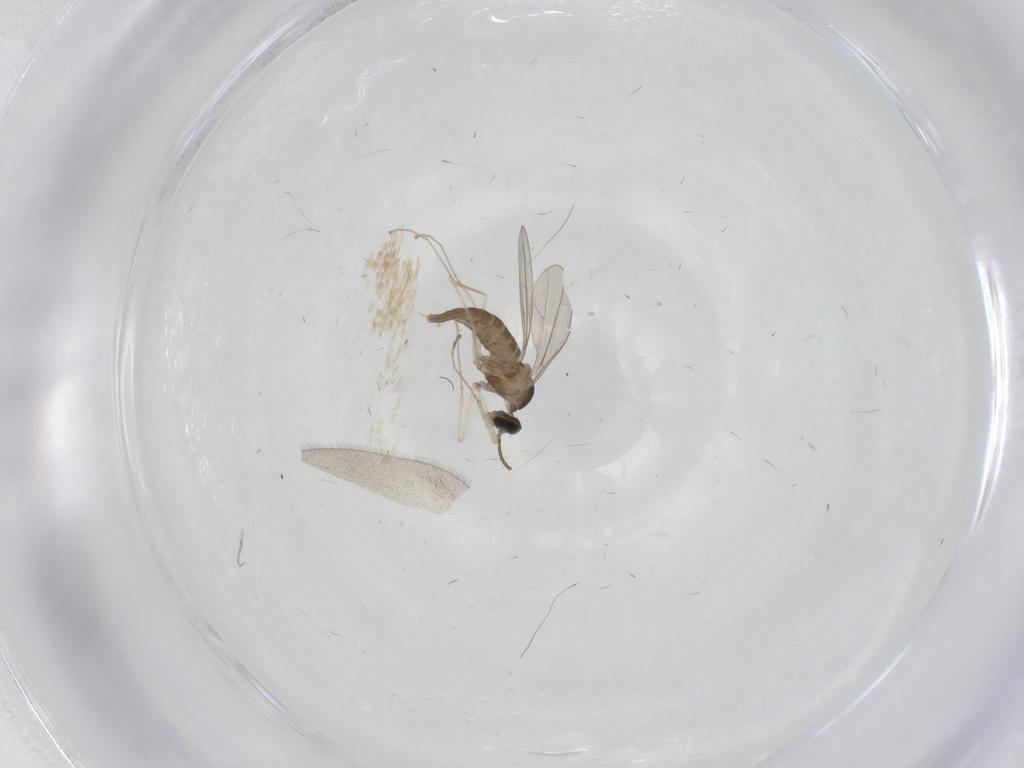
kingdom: Animalia
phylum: Arthropoda
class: Insecta
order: Diptera
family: Cecidomyiidae
